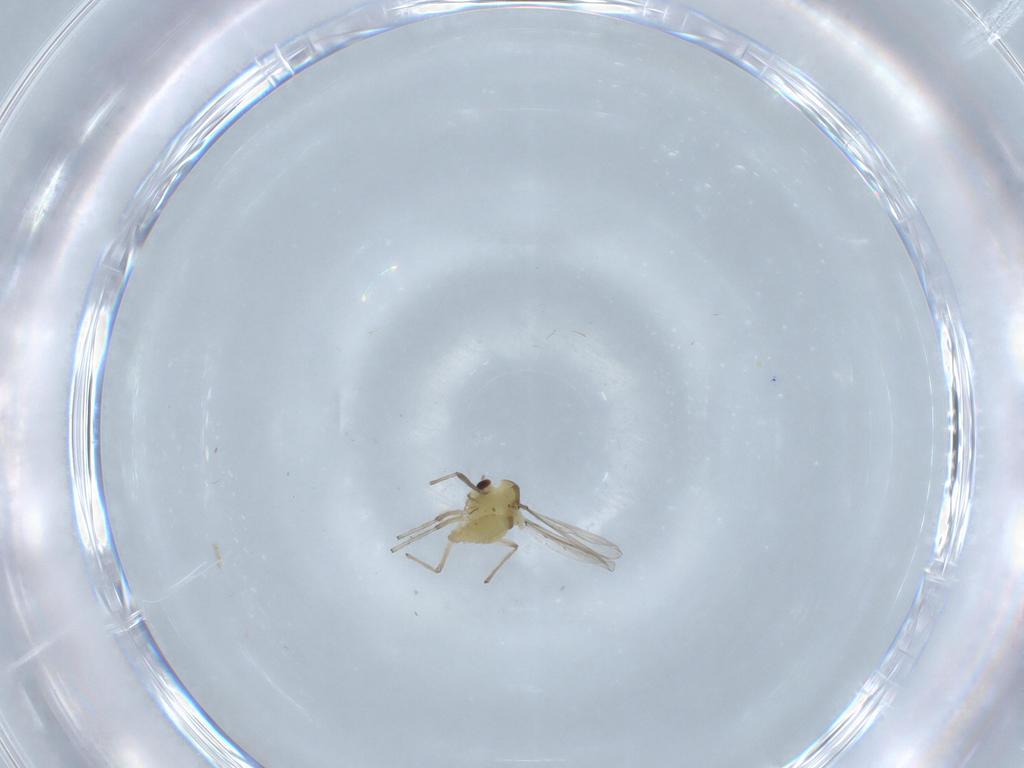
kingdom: Animalia
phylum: Arthropoda
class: Insecta
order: Diptera
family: Chironomidae
